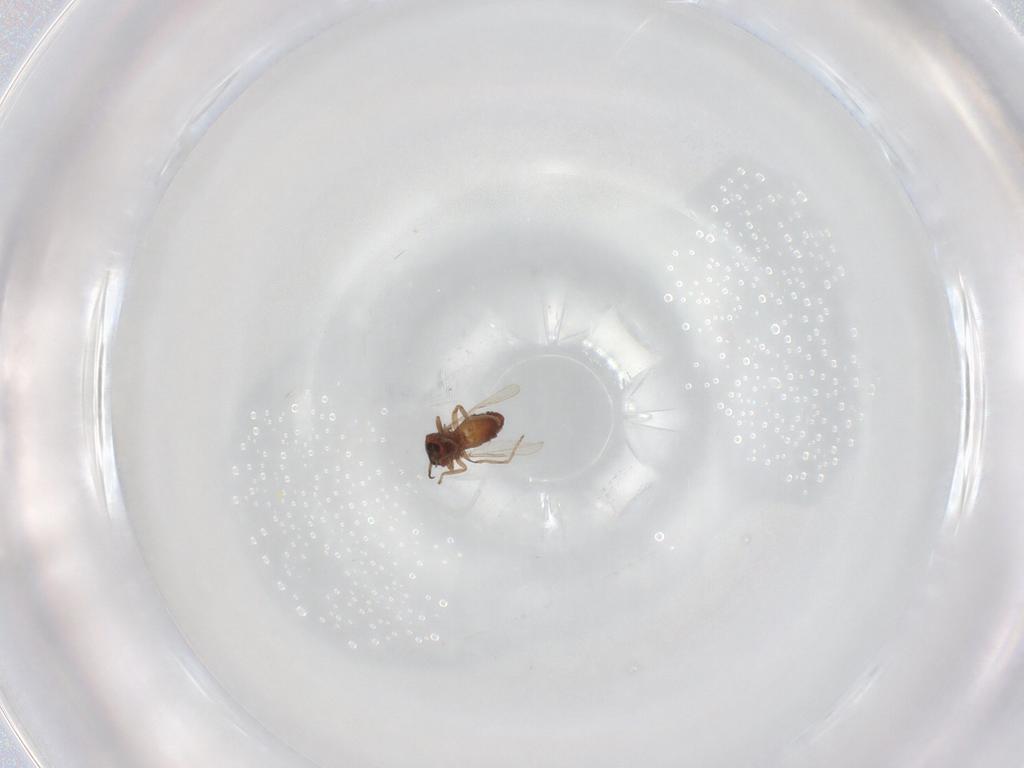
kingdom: Animalia
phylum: Arthropoda
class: Insecta
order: Diptera
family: Ceratopogonidae
